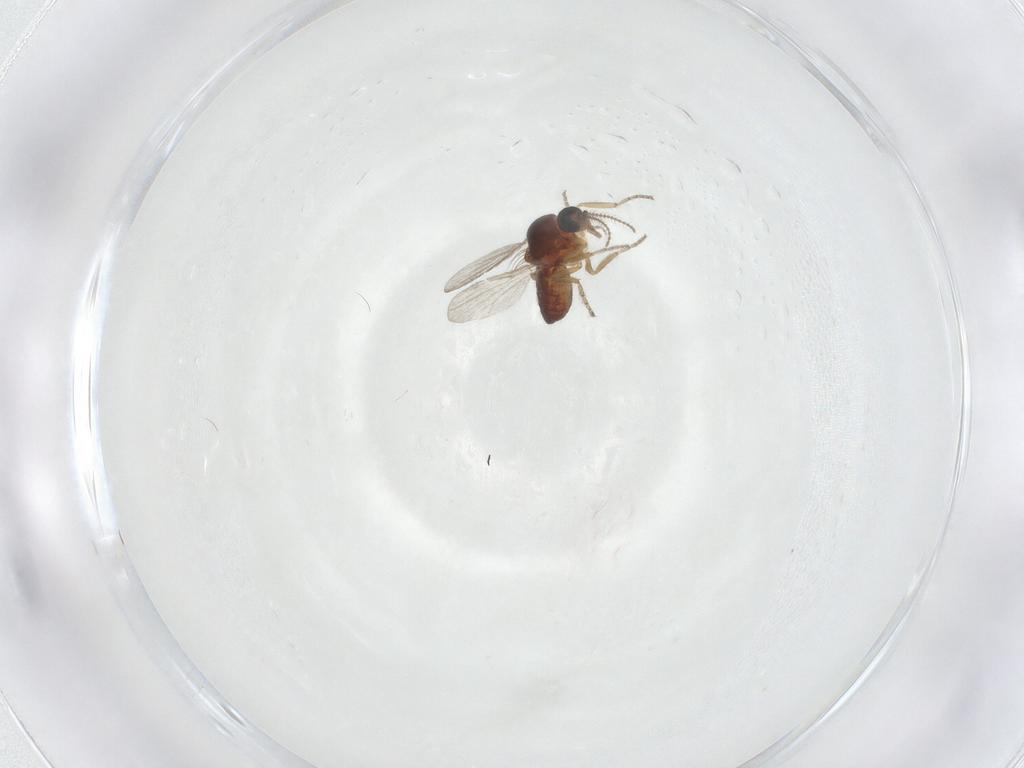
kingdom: Animalia
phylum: Arthropoda
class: Insecta
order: Diptera
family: Ceratopogonidae
